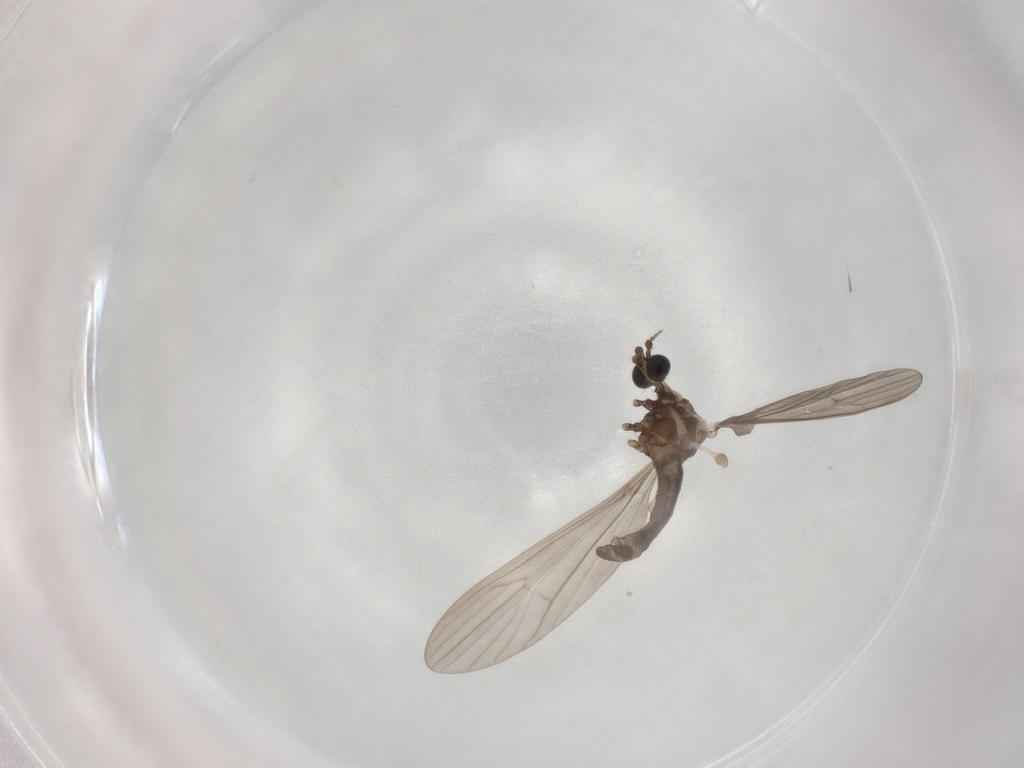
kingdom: Animalia
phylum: Arthropoda
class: Insecta
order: Diptera
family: Limoniidae
